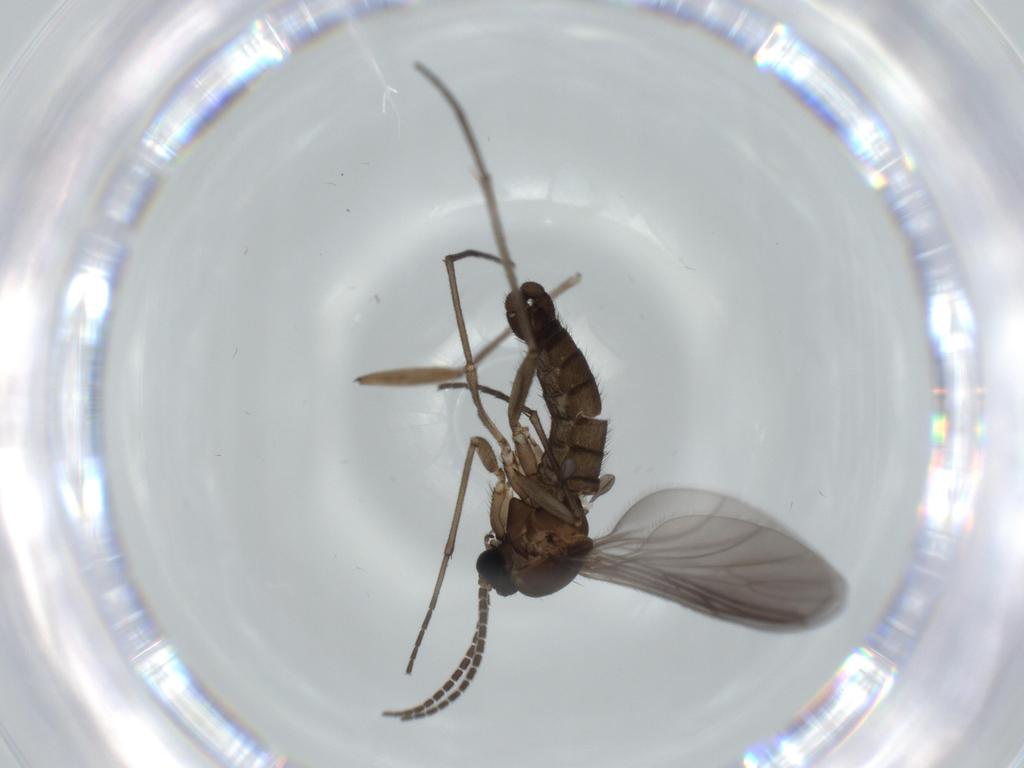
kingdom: Animalia
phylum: Arthropoda
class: Insecta
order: Diptera
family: Sciaridae
